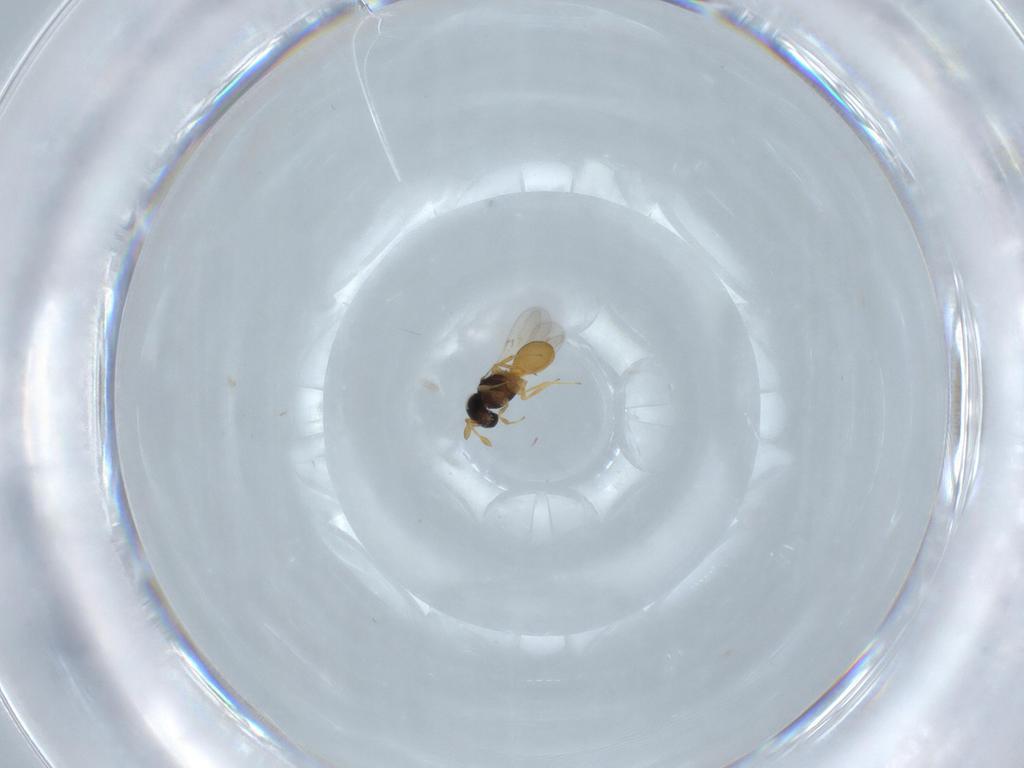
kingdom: Animalia
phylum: Arthropoda
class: Insecta
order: Hymenoptera
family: Scelionidae
